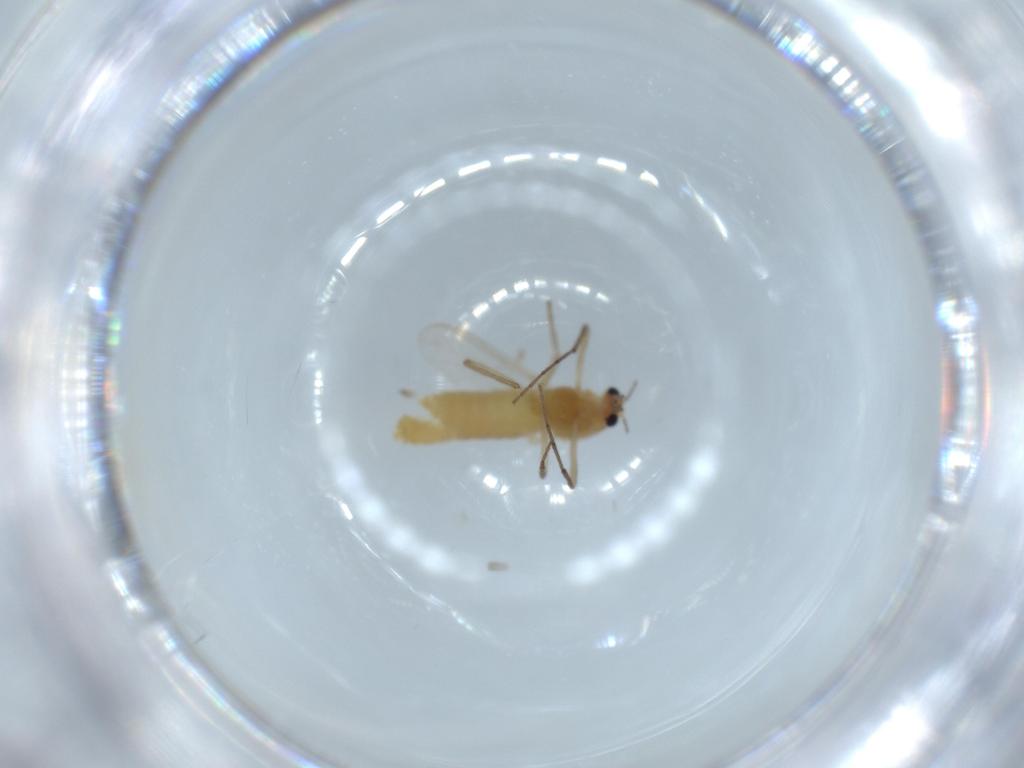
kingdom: Animalia
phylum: Arthropoda
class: Insecta
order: Diptera
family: Chironomidae
